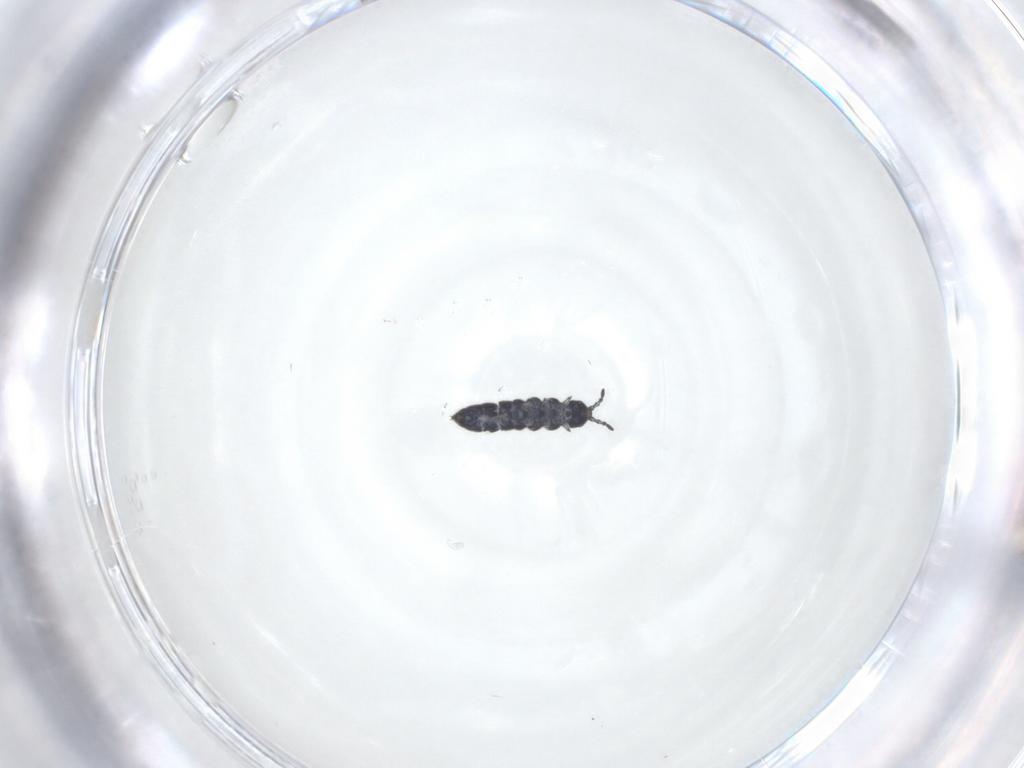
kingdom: Animalia
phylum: Arthropoda
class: Collembola
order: Entomobryomorpha
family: Isotomidae
